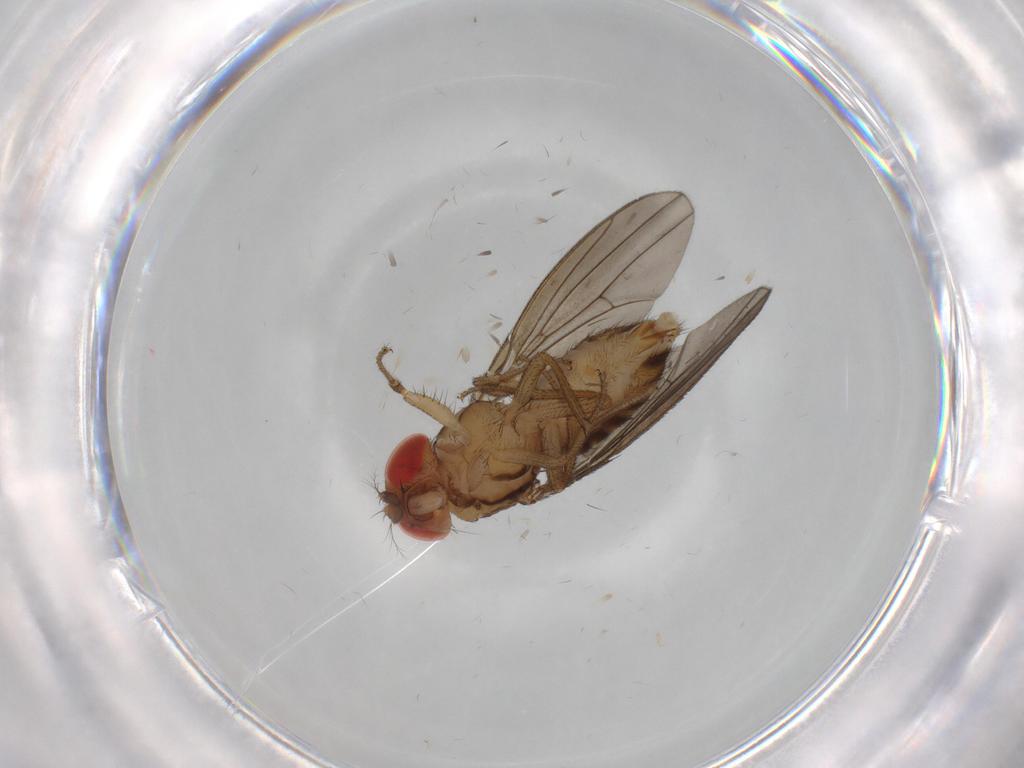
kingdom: Animalia
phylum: Arthropoda
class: Insecta
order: Diptera
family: Drosophilidae
